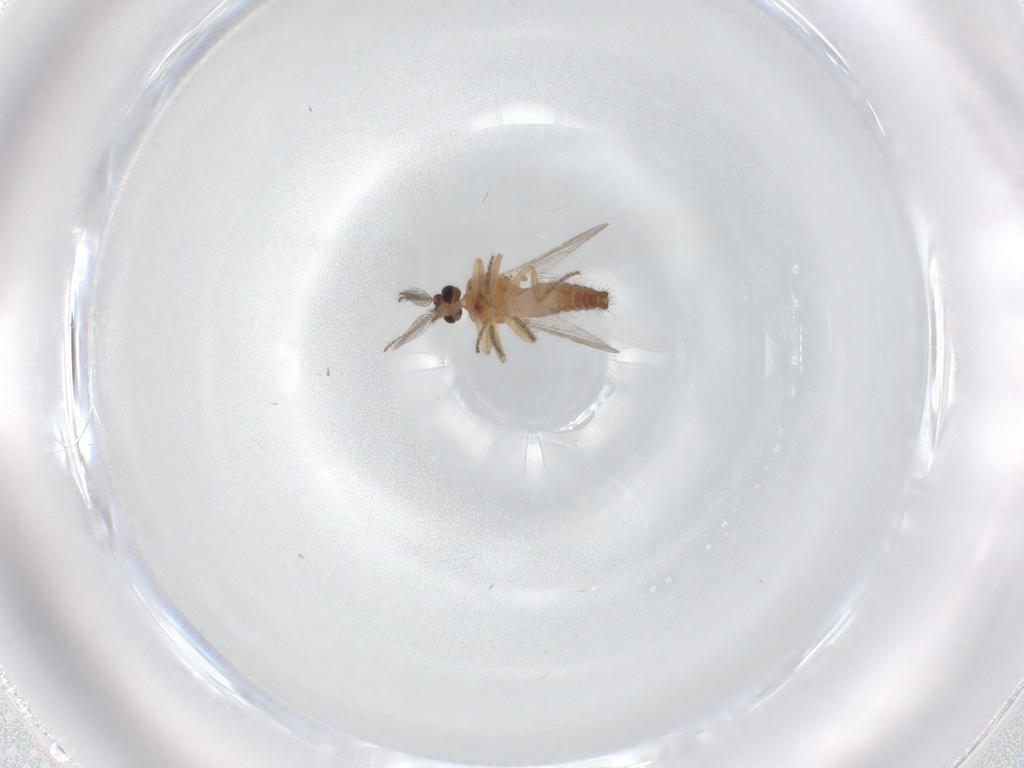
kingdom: Animalia
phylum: Arthropoda
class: Insecta
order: Diptera
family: Ceratopogonidae
